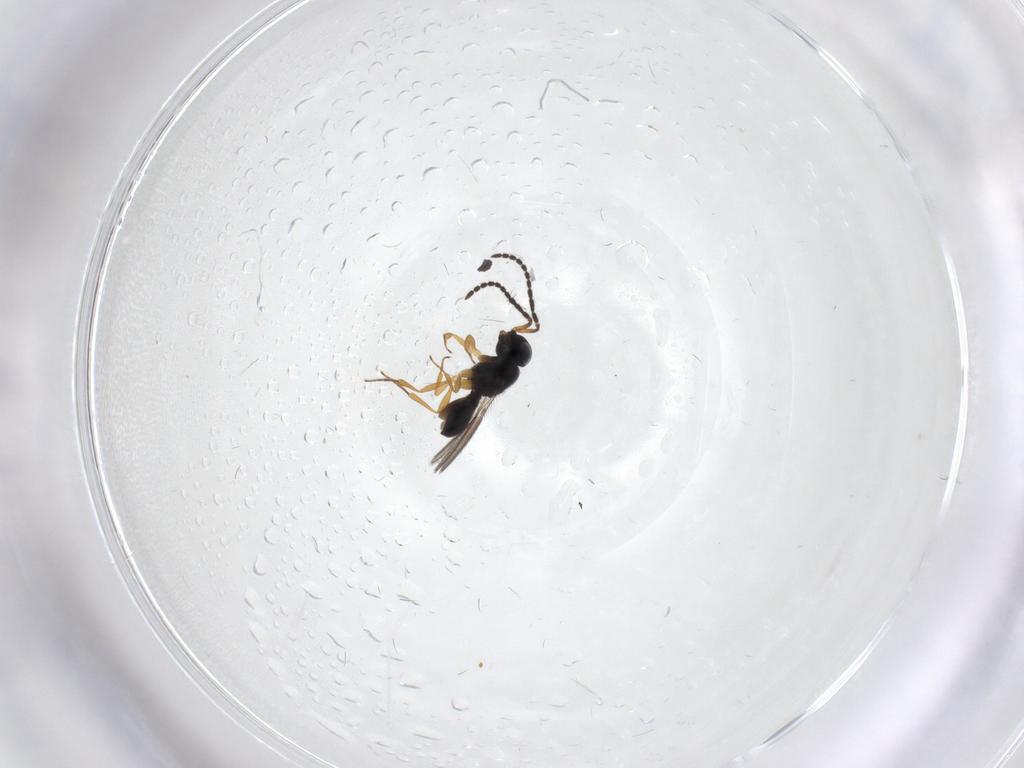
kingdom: Animalia
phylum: Arthropoda
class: Insecta
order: Hymenoptera
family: Scelionidae
